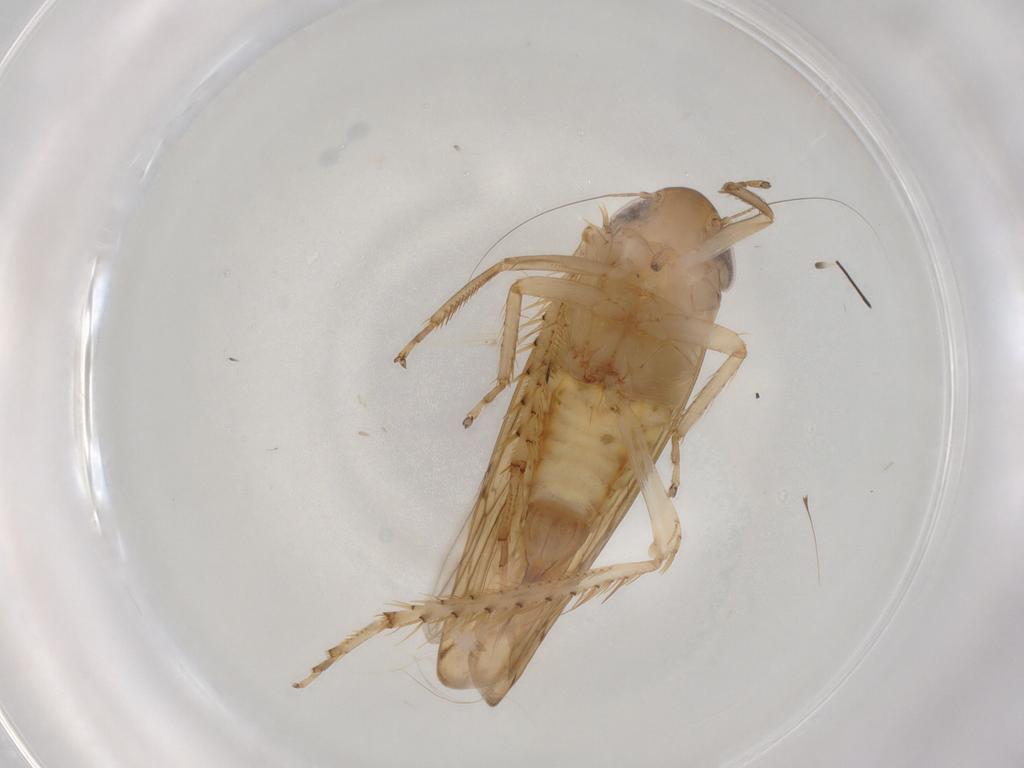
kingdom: Animalia
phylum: Arthropoda
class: Insecta
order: Hemiptera
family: Cicadellidae
